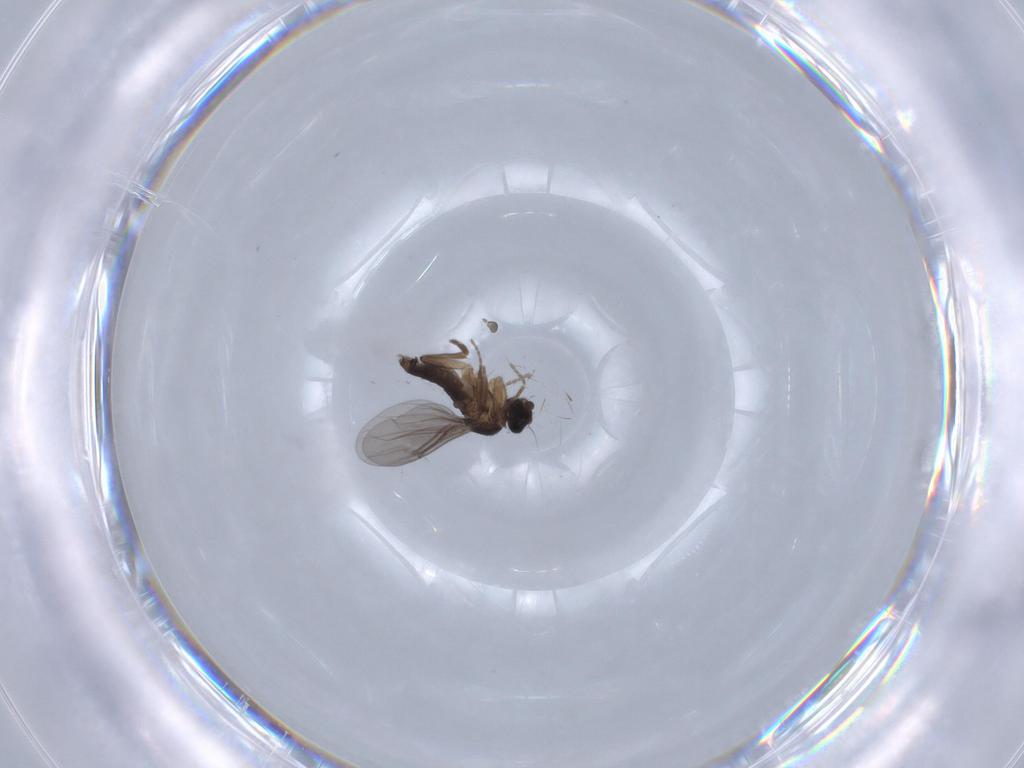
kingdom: Animalia
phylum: Arthropoda
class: Insecta
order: Diptera
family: Phoridae
